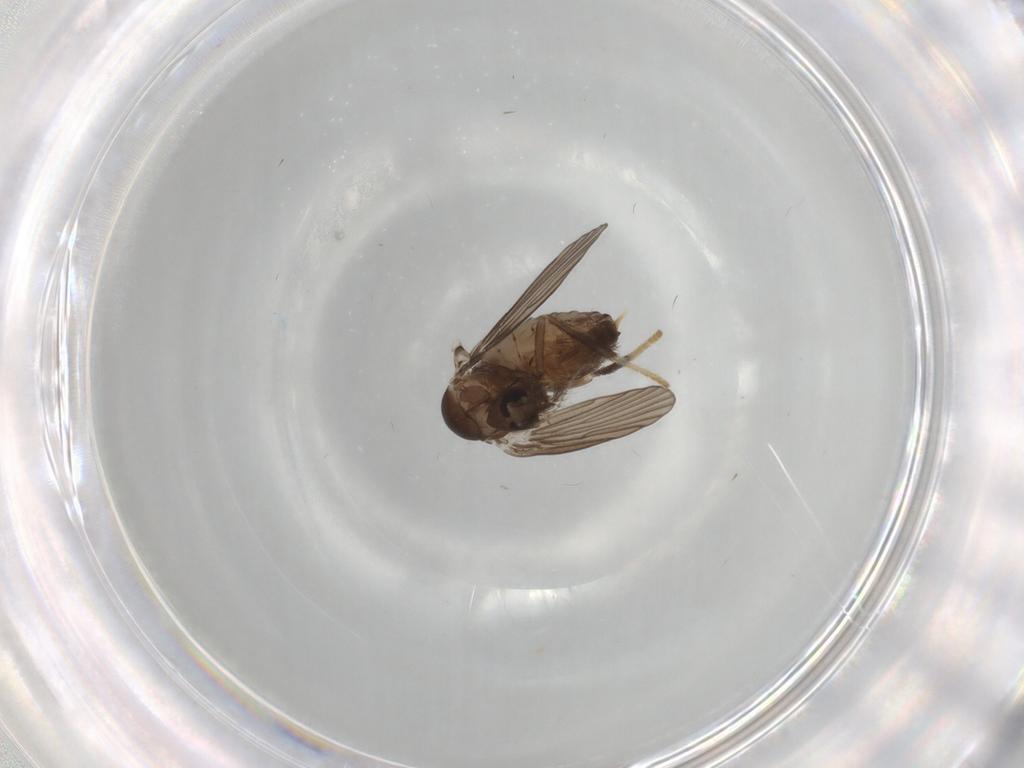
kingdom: Animalia
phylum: Arthropoda
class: Insecta
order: Diptera
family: Psychodidae
